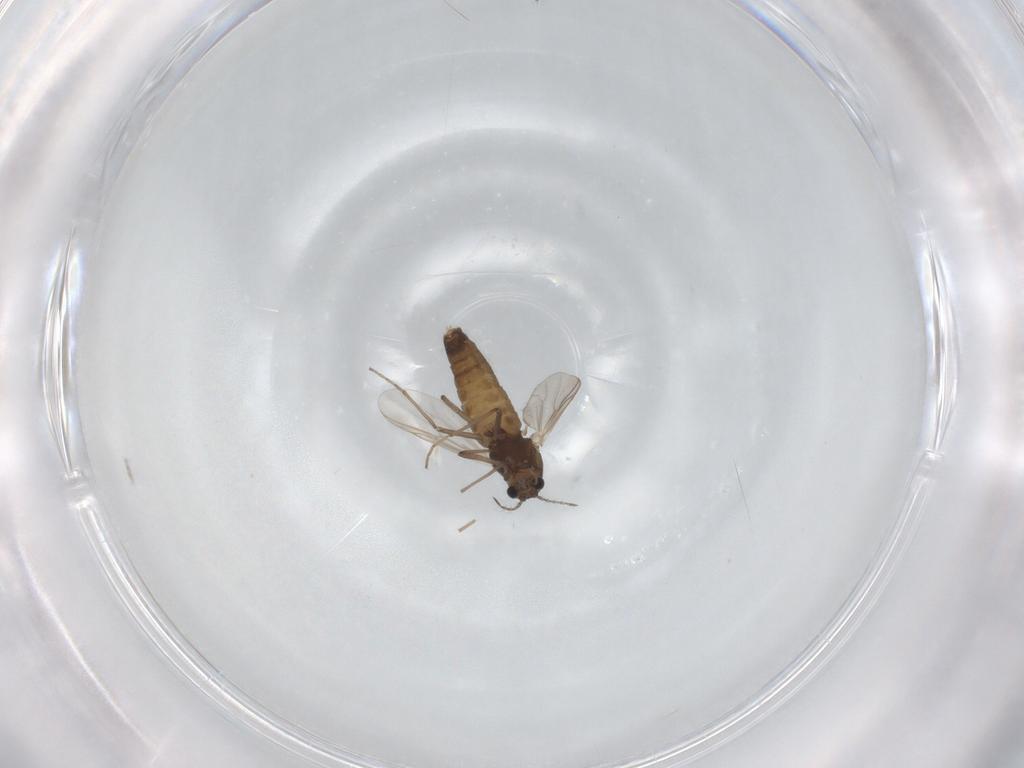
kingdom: Animalia
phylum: Arthropoda
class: Insecta
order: Diptera
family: Chironomidae
